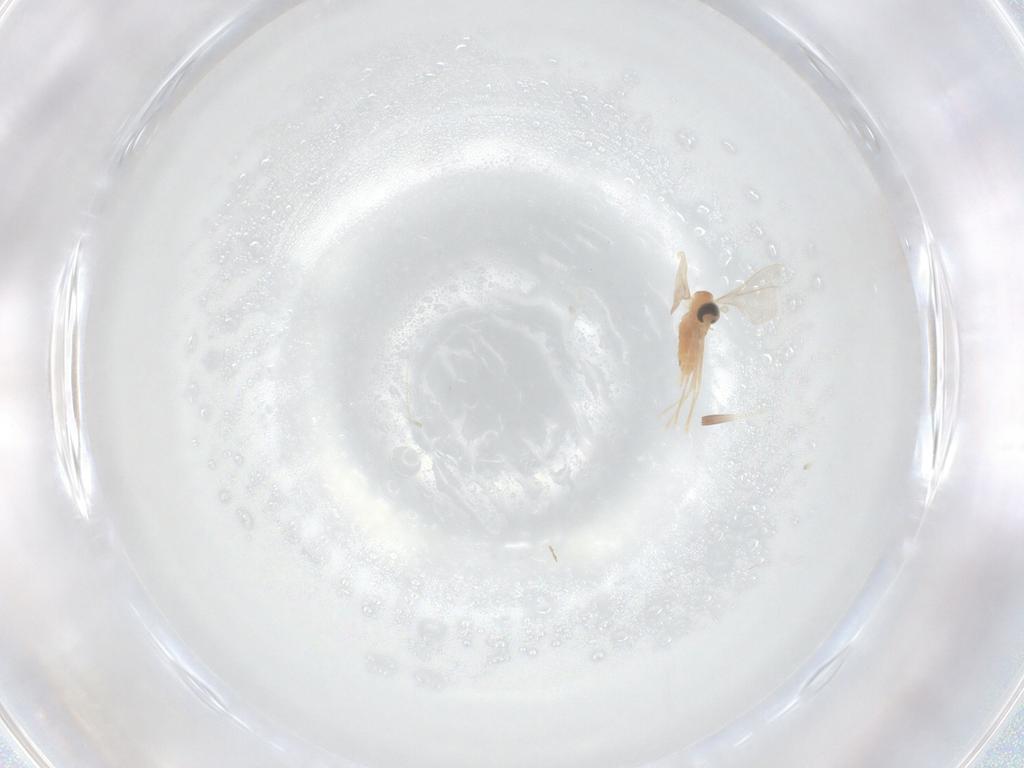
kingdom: Animalia
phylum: Arthropoda
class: Insecta
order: Diptera
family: Cecidomyiidae
